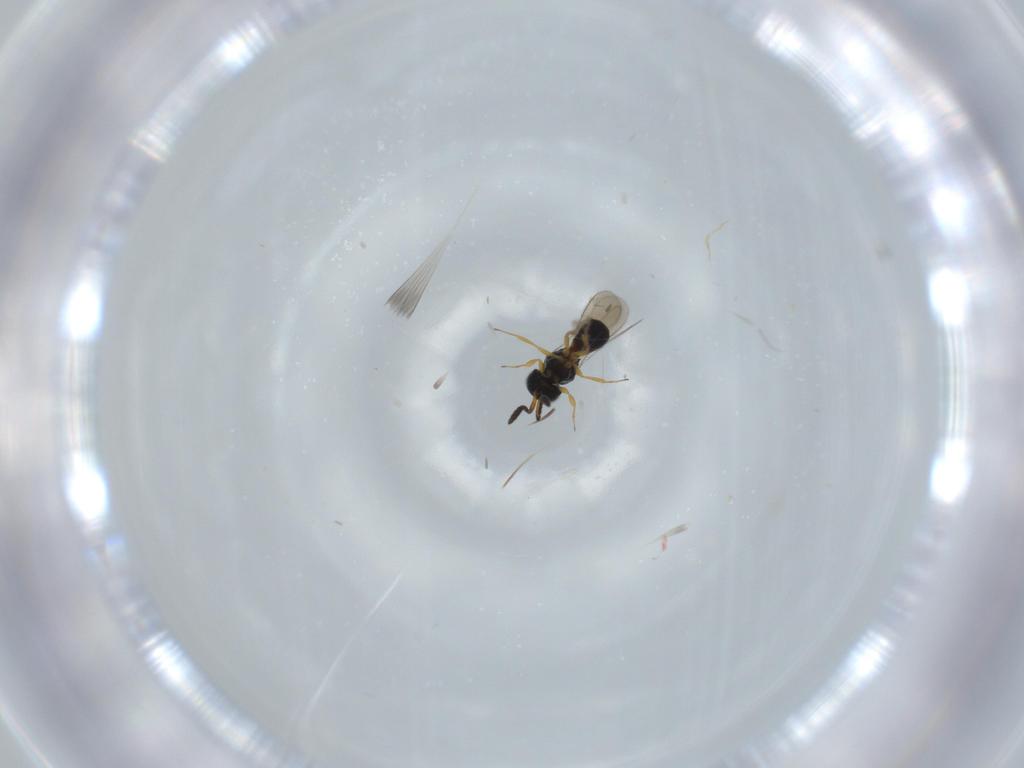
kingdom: Animalia
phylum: Arthropoda
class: Insecta
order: Hymenoptera
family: Scelionidae
